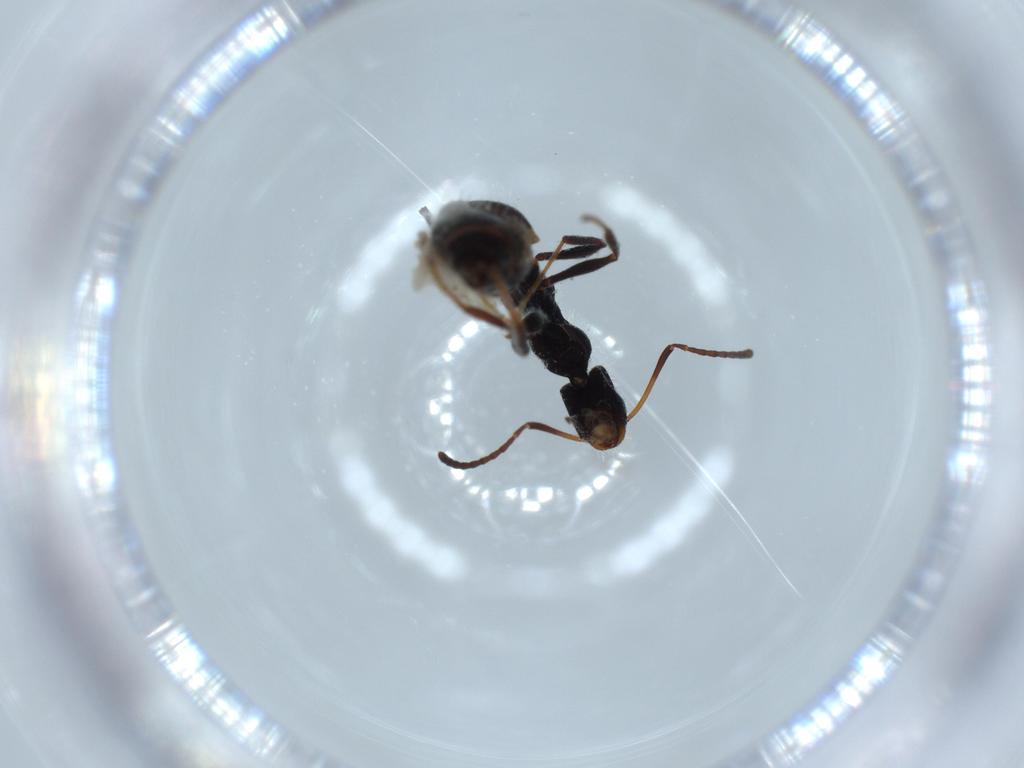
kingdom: Animalia
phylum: Arthropoda
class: Insecta
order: Hymenoptera
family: Formicidae
